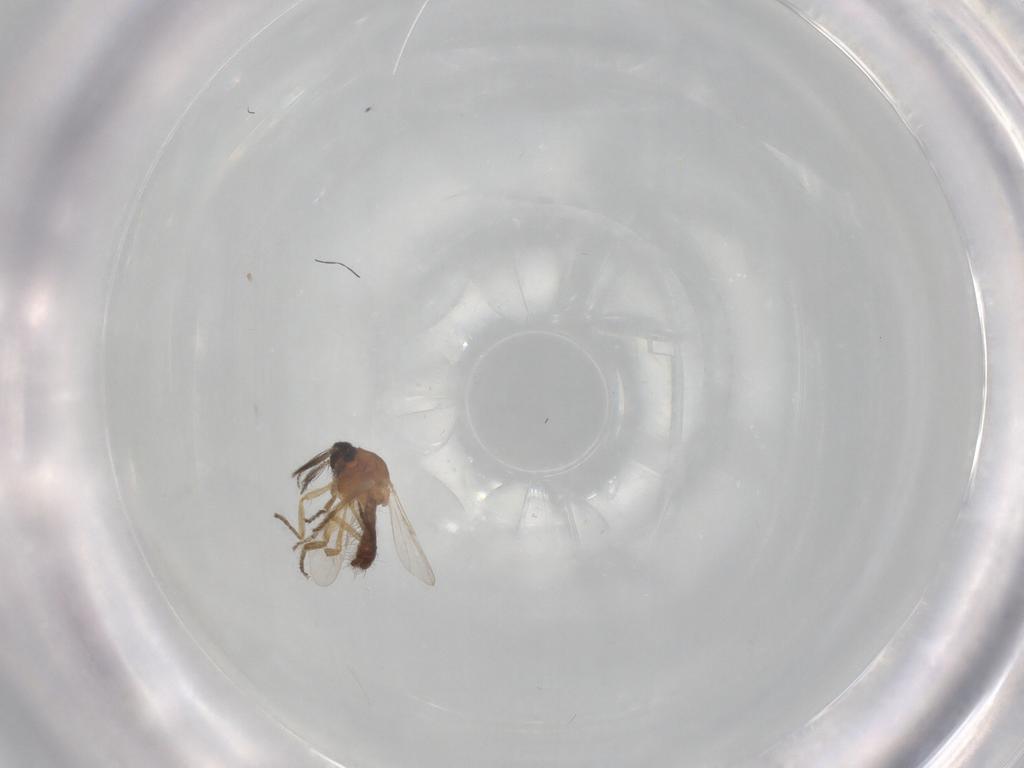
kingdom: Animalia
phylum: Arthropoda
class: Insecta
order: Diptera
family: Ceratopogonidae
